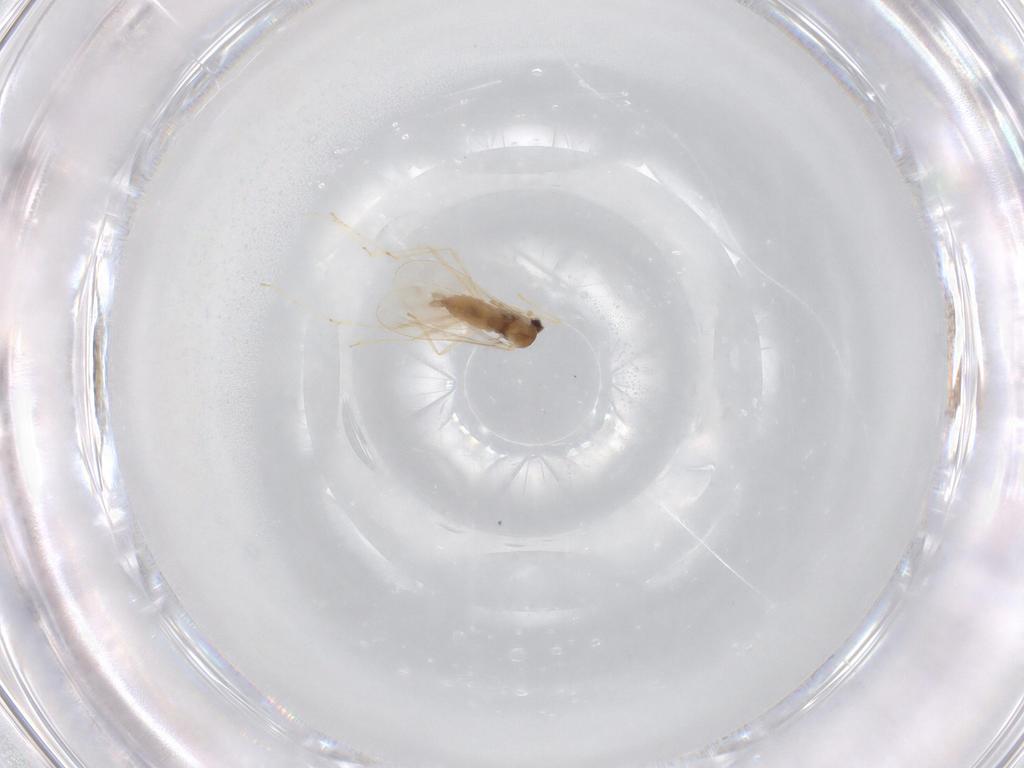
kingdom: Animalia
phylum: Arthropoda
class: Insecta
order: Diptera
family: Cecidomyiidae
